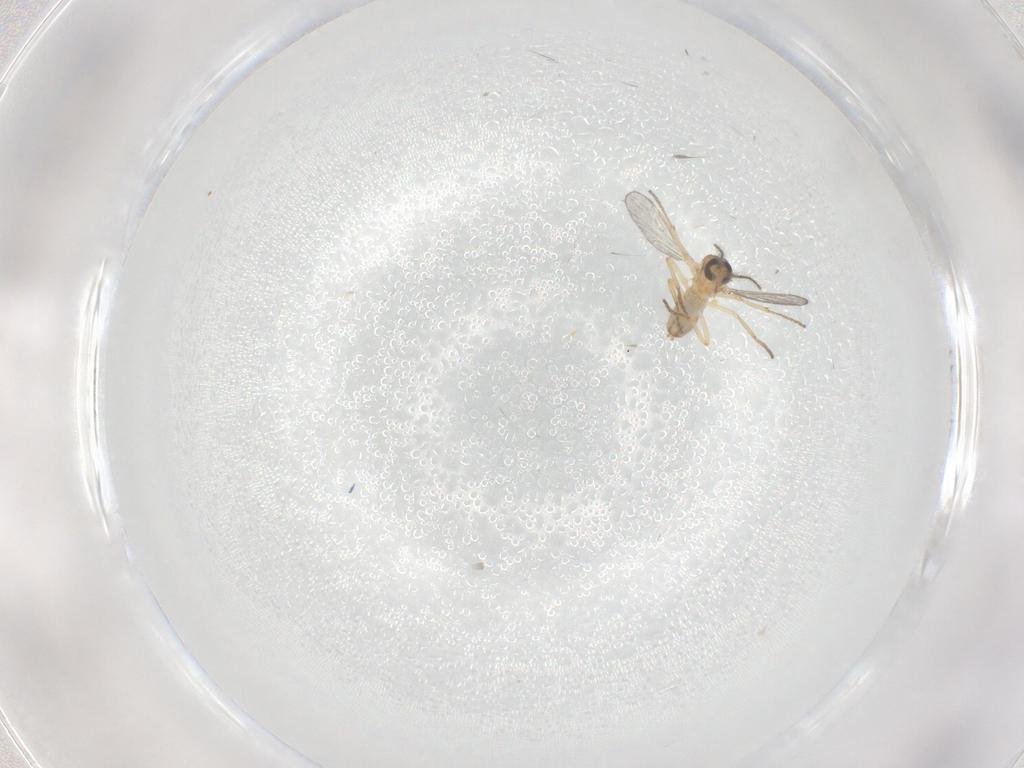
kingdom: Animalia
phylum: Arthropoda
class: Insecta
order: Diptera
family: Ceratopogonidae
